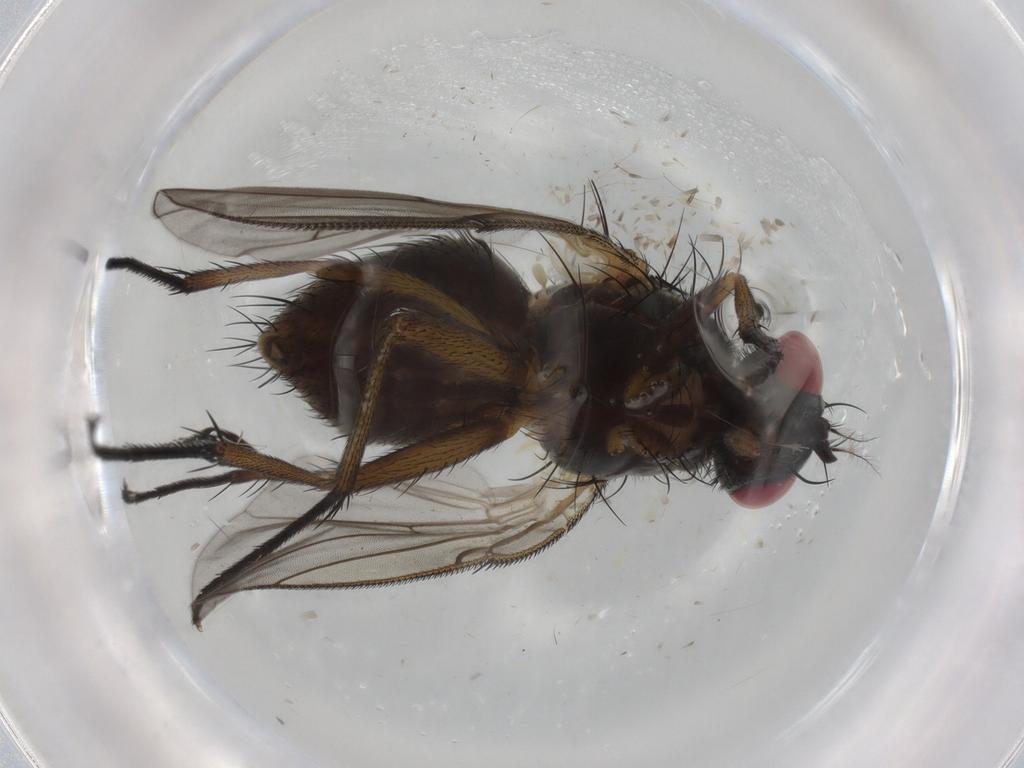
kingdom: Animalia
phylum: Arthropoda
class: Insecta
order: Diptera
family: Muscidae
